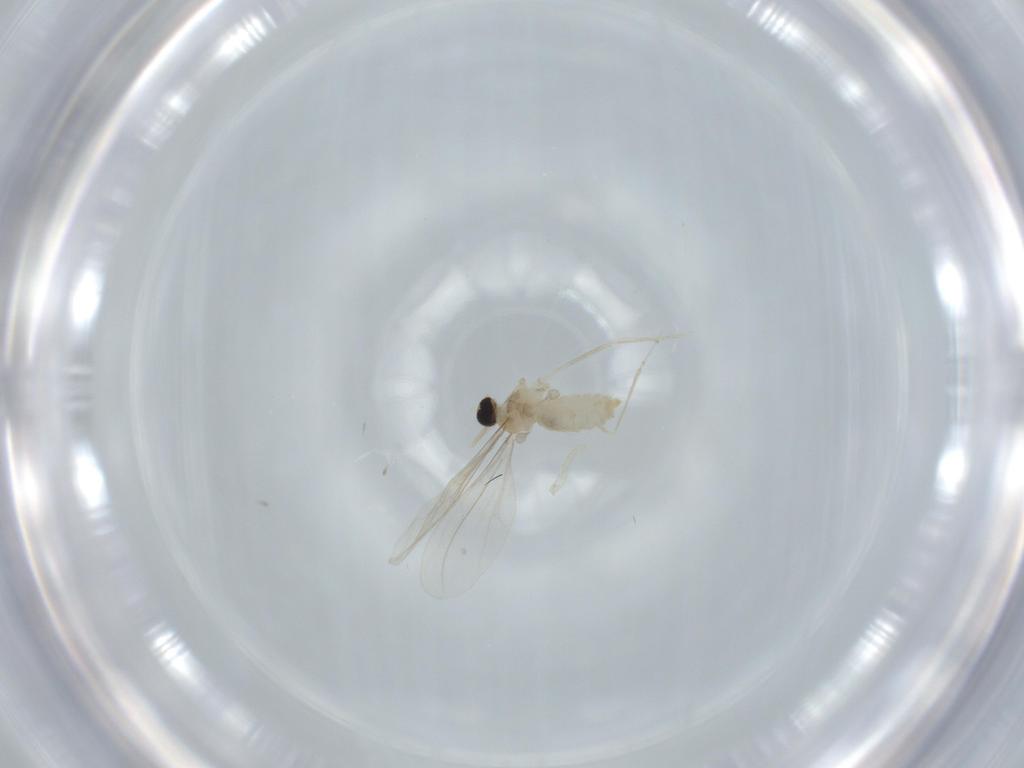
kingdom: Animalia
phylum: Arthropoda
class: Insecta
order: Diptera
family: Cecidomyiidae
